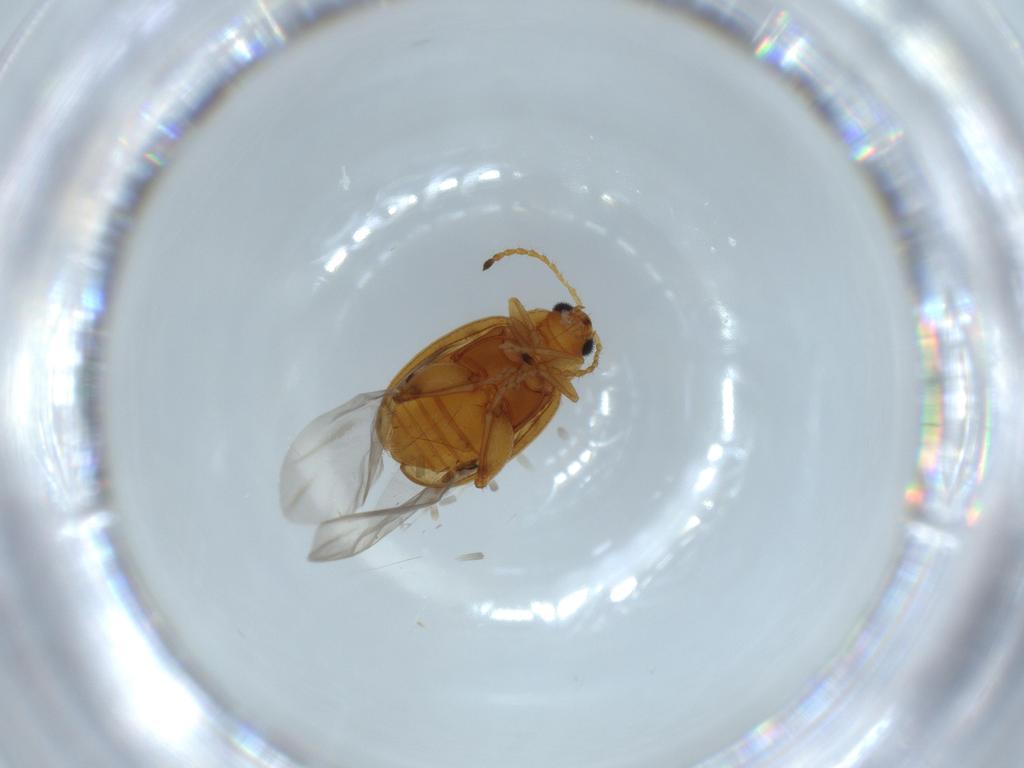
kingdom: Animalia
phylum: Arthropoda
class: Insecta
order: Coleoptera
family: Chrysomelidae
